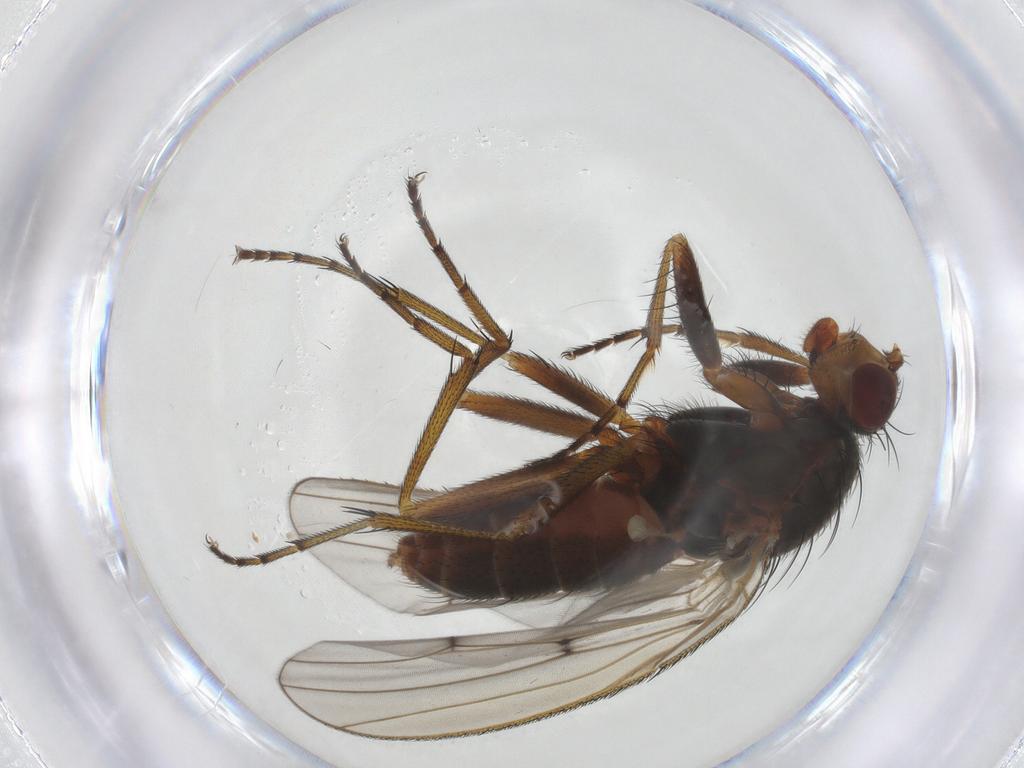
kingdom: Animalia
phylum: Arthropoda
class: Insecta
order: Diptera
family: Heleomyzidae
